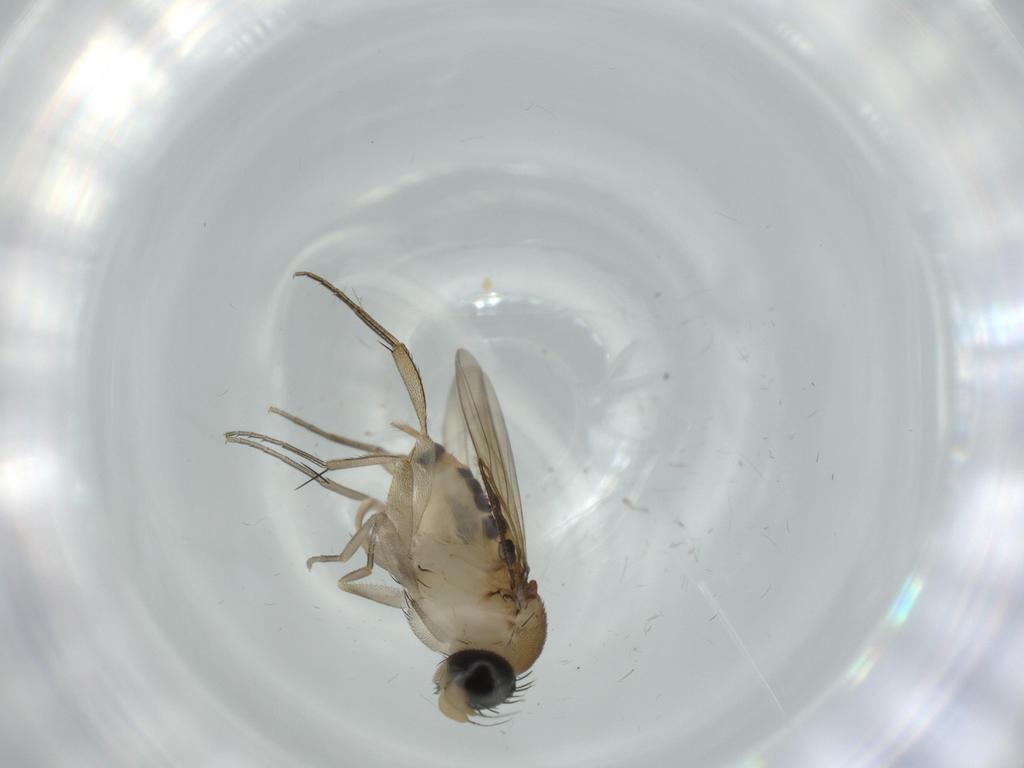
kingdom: Animalia
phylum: Arthropoda
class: Insecta
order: Diptera
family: Phoridae
